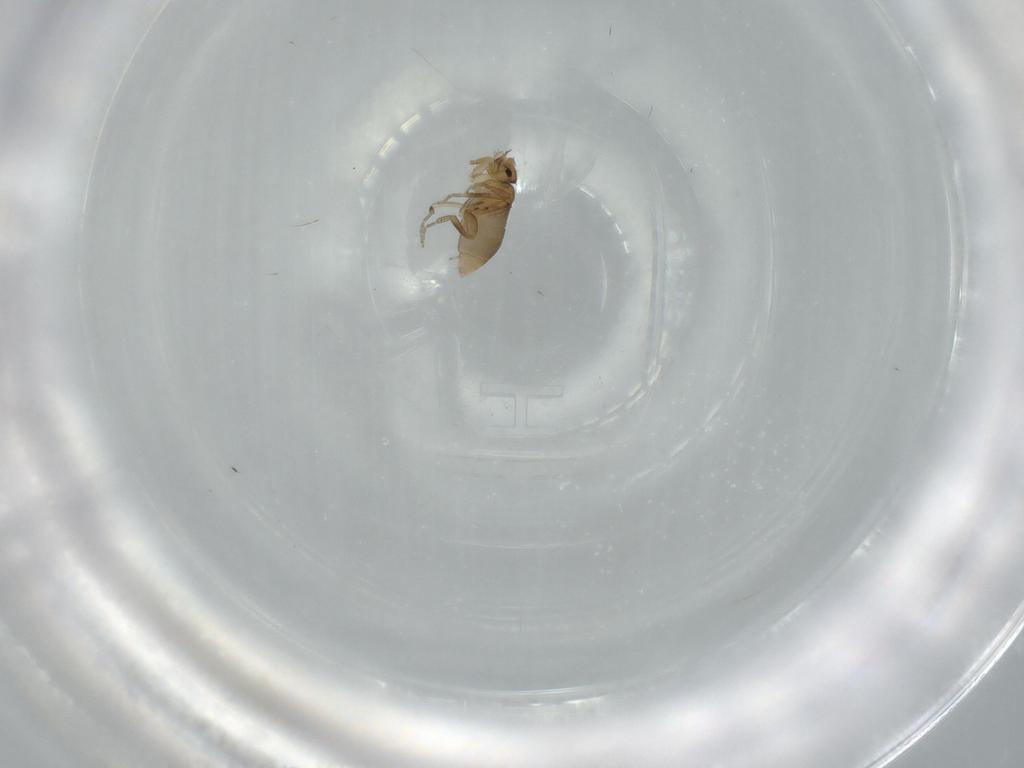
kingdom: Animalia
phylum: Arthropoda
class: Insecta
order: Diptera
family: Phoridae
